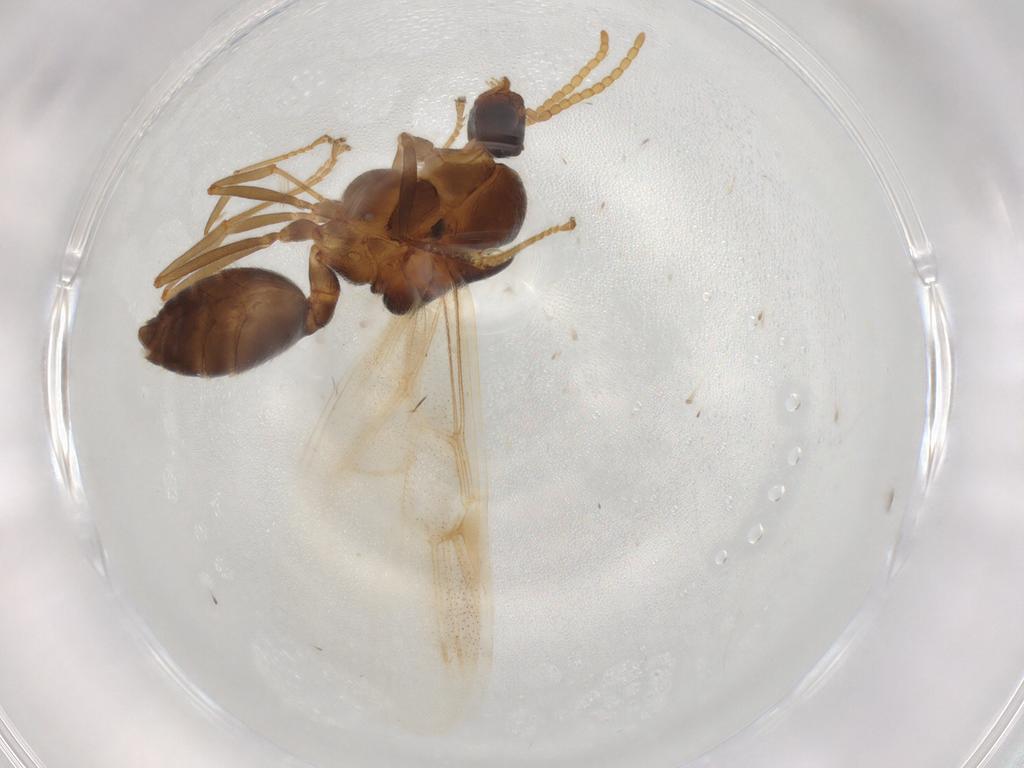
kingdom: Animalia
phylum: Arthropoda
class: Insecta
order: Hymenoptera
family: Formicidae
